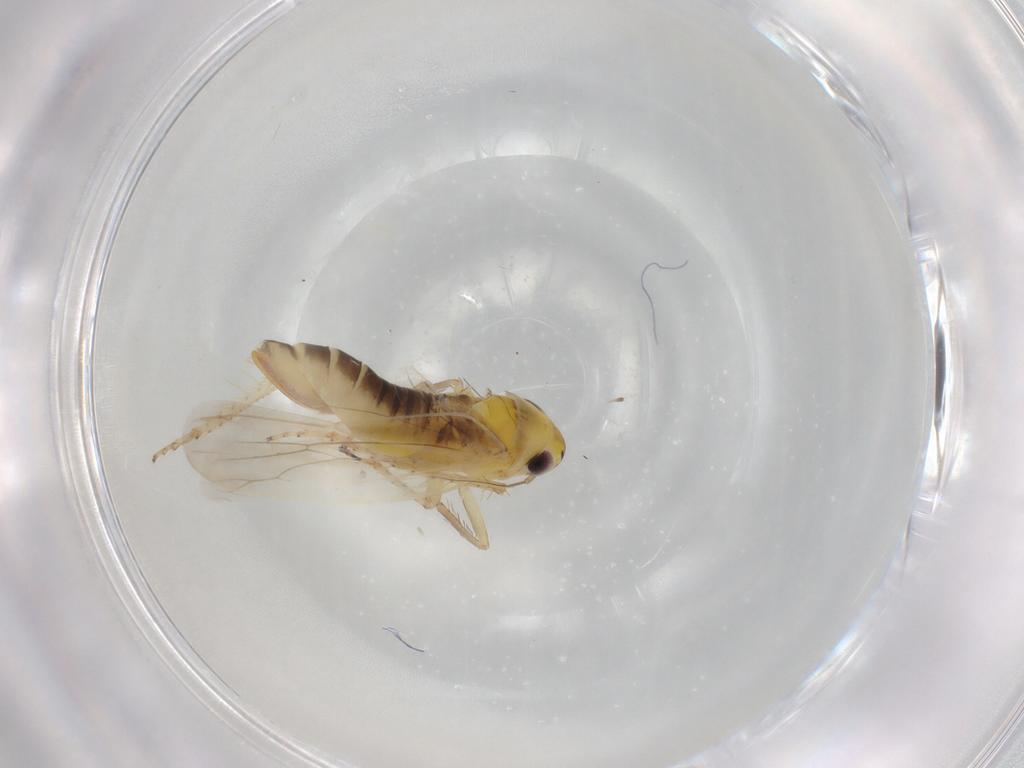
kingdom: Animalia
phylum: Arthropoda
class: Insecta
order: Hemiptera
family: Cicadellidae
